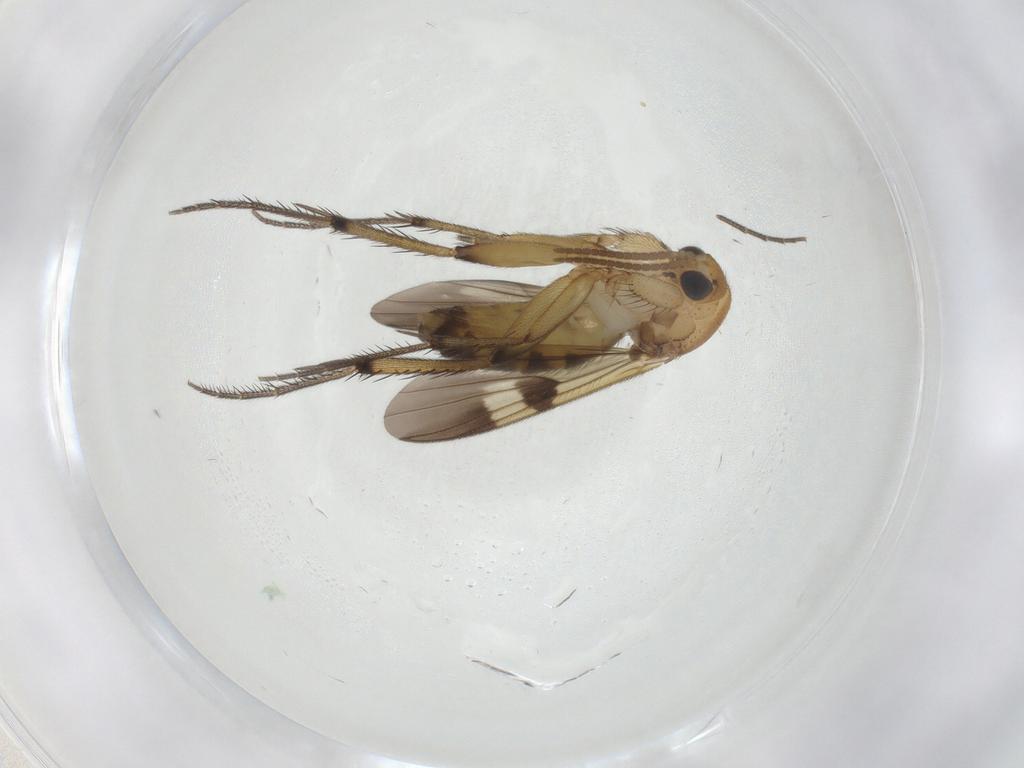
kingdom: Animalia
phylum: Arthropoda
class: Insecta
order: Diptera
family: Mycetophilidae
